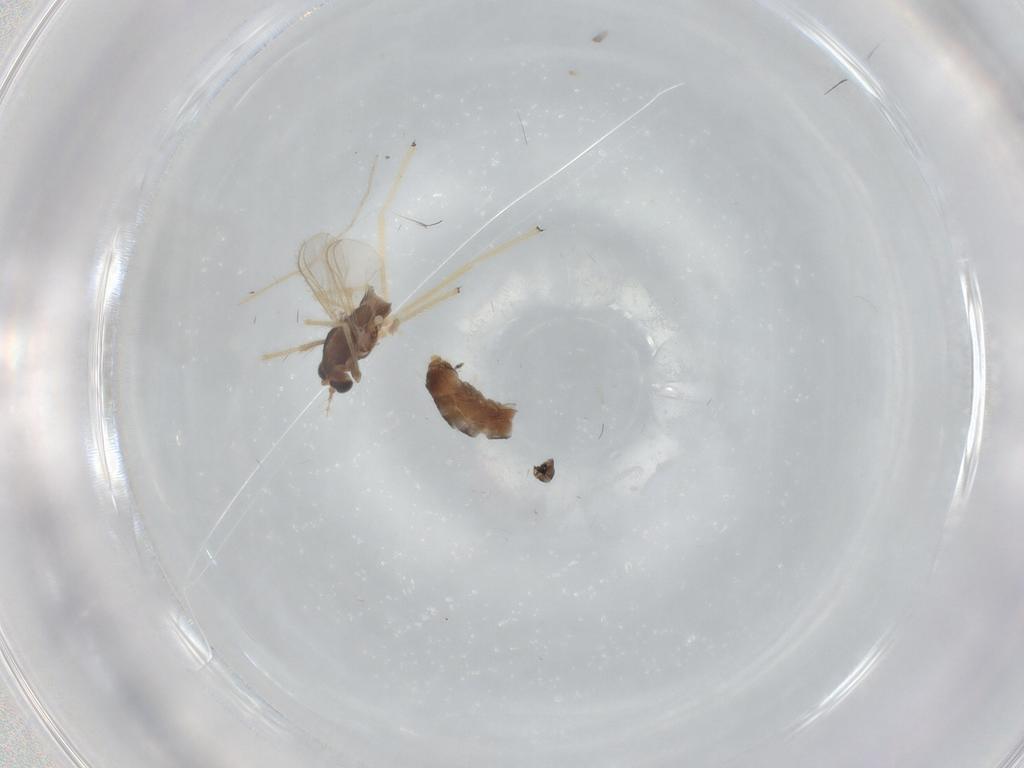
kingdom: Animalia
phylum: Arthropoda
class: Insecta
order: Diptera
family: Chironomidae
